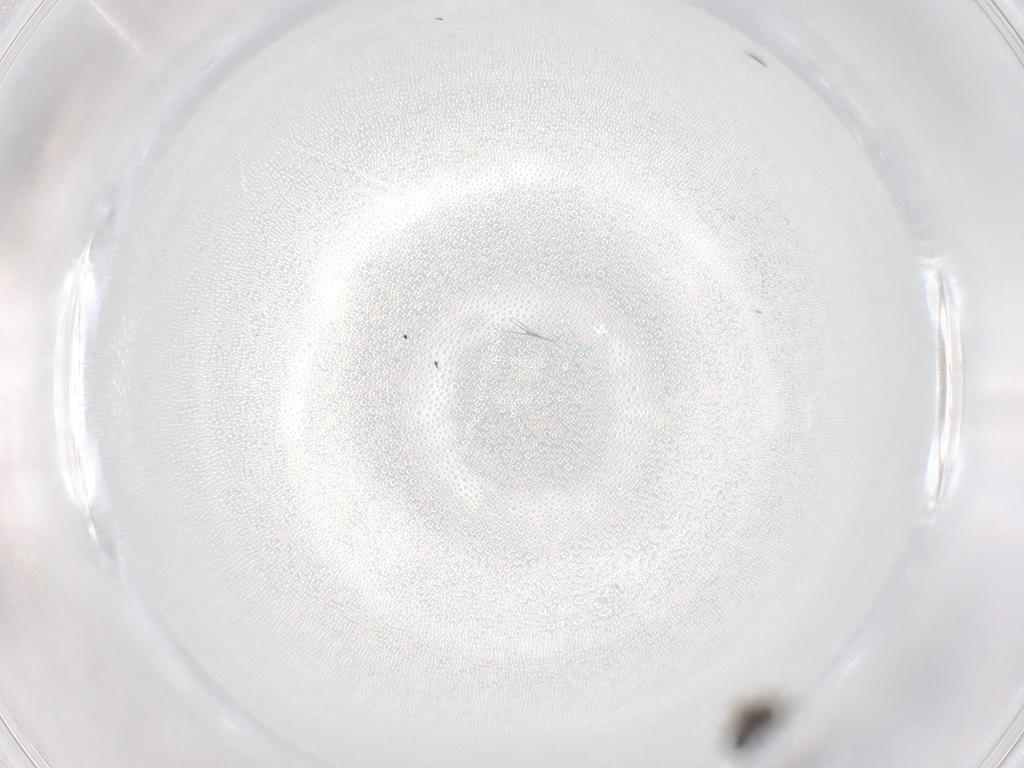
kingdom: Animalia
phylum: Arthropoda
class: Insecta
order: Diptera
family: Cecidomyiidae
